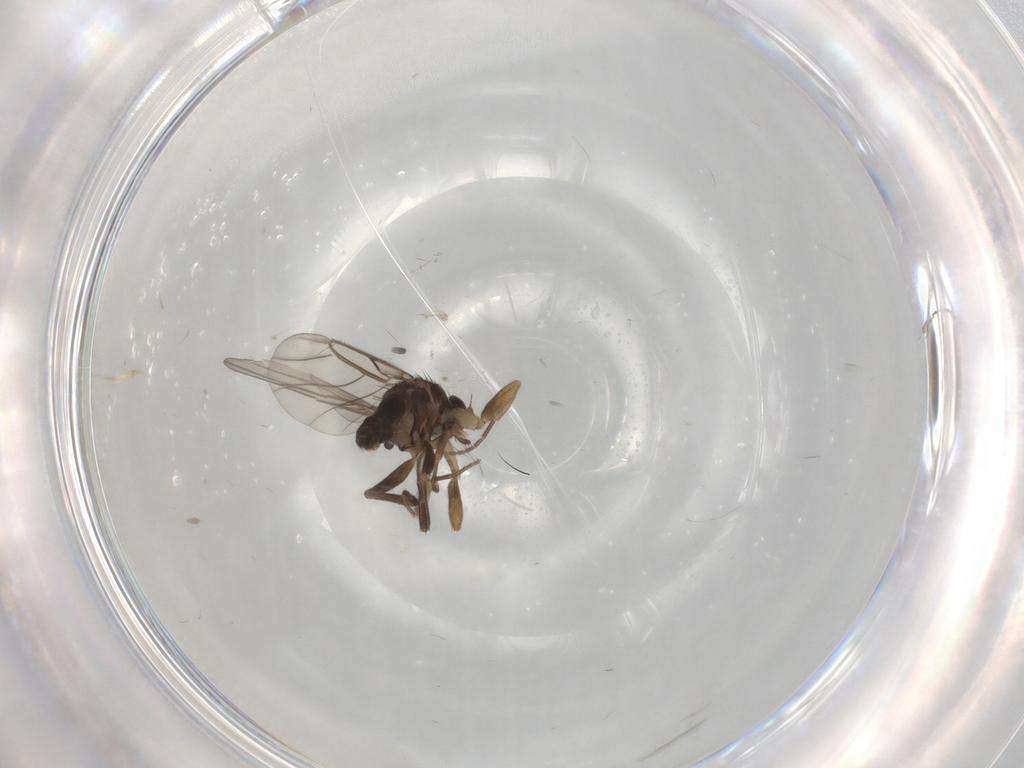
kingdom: Animalia
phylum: Arthropoda
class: Insecta
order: Diptera
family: Phoridae
